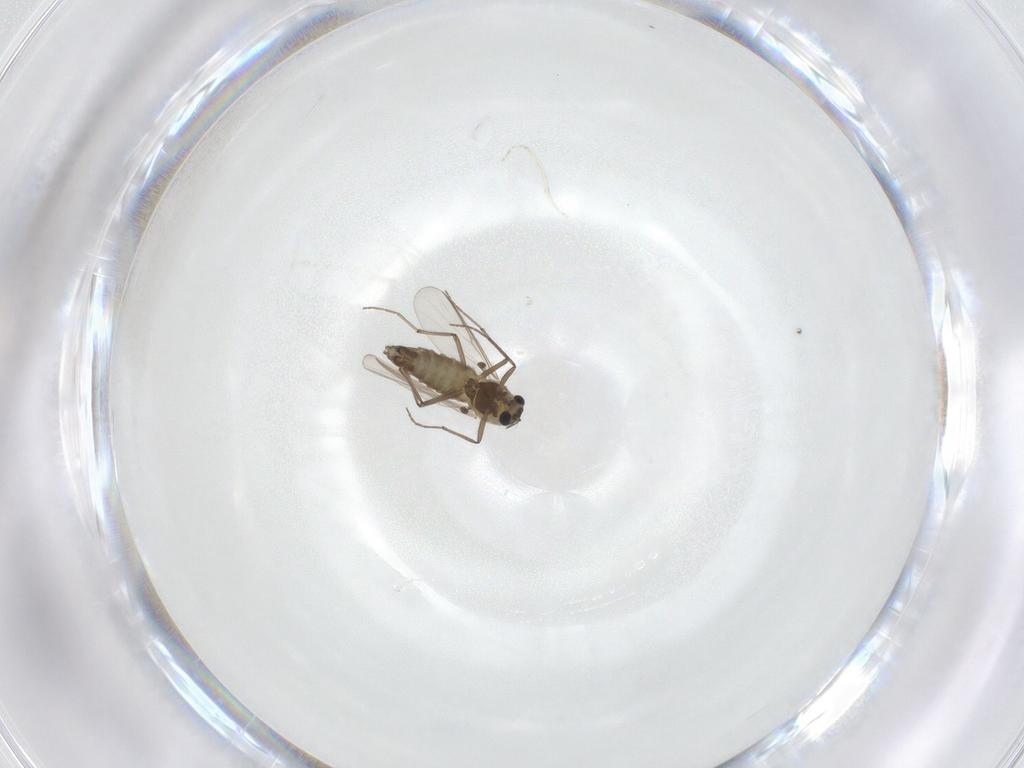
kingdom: Animalia
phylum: Arthropoda
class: Insecta
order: Diptera
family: Chironomidae
